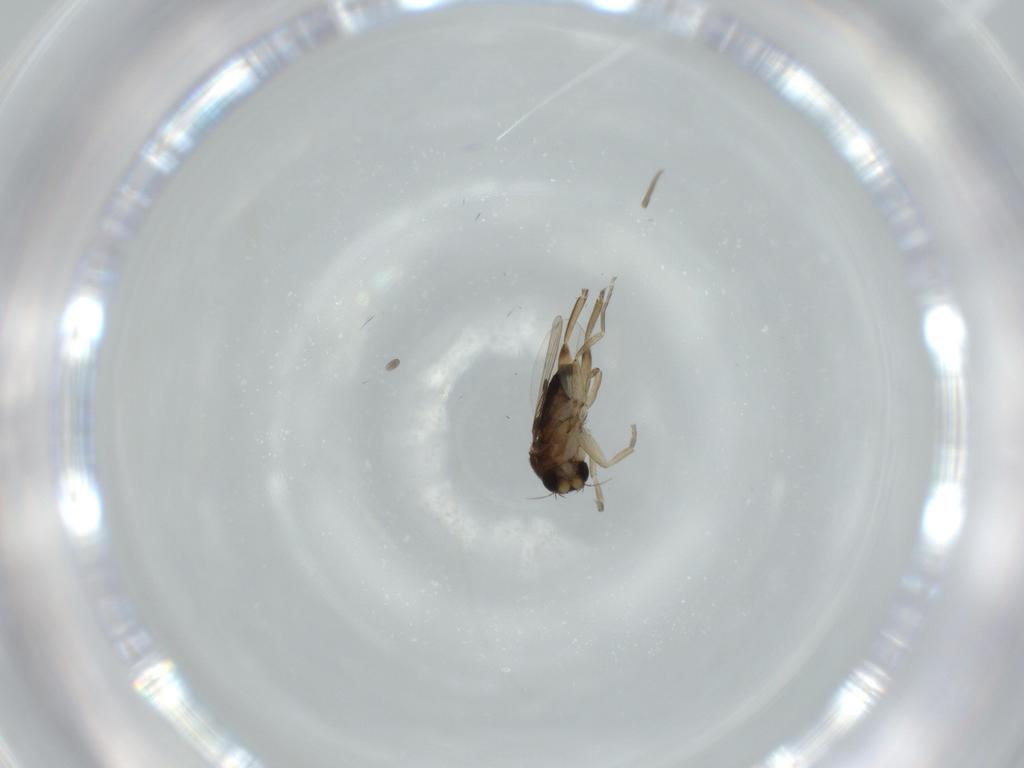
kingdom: Animalia
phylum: Arthropoda
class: Insecta
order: Diptera
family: Phoridae
